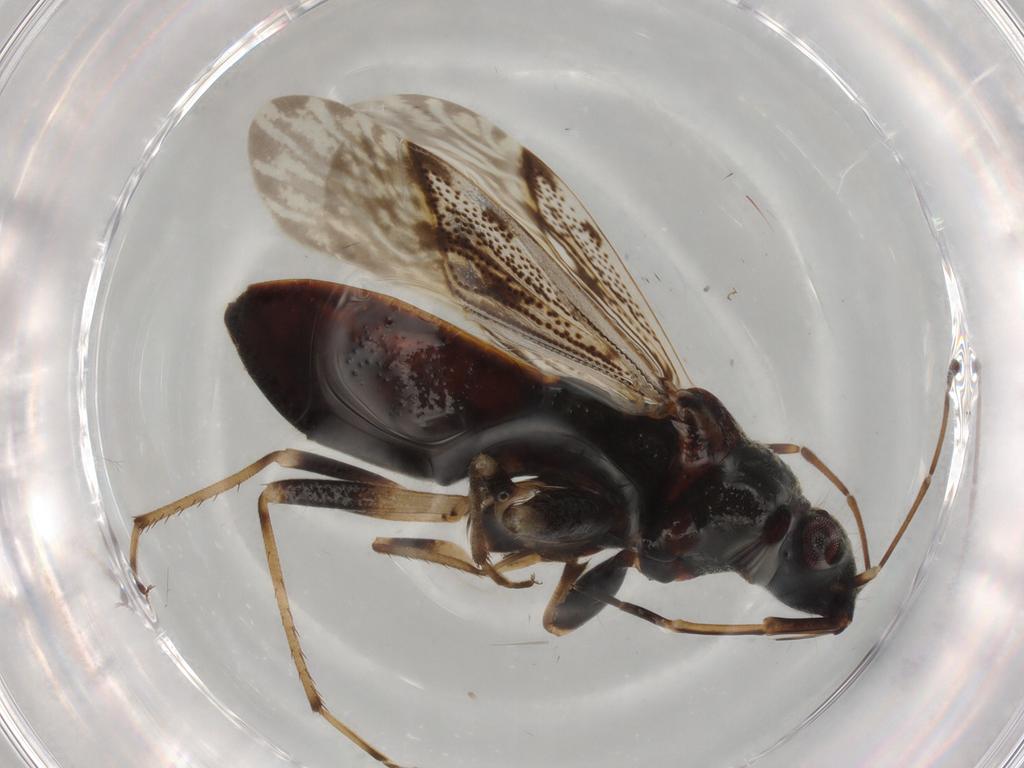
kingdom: Animalia
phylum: Arthropoda
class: Insecta
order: Hemiptera
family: Rhyparochromidae
